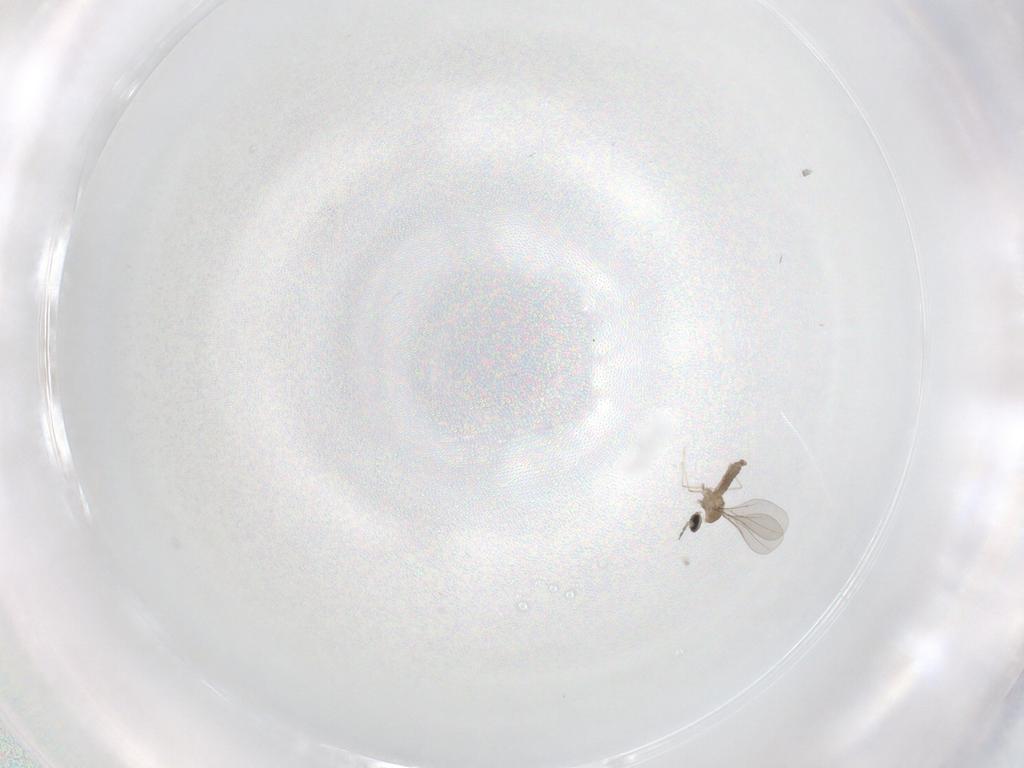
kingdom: Animalia
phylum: Arthropoda
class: Insecta
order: Diptera
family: Cecidomyiidae
